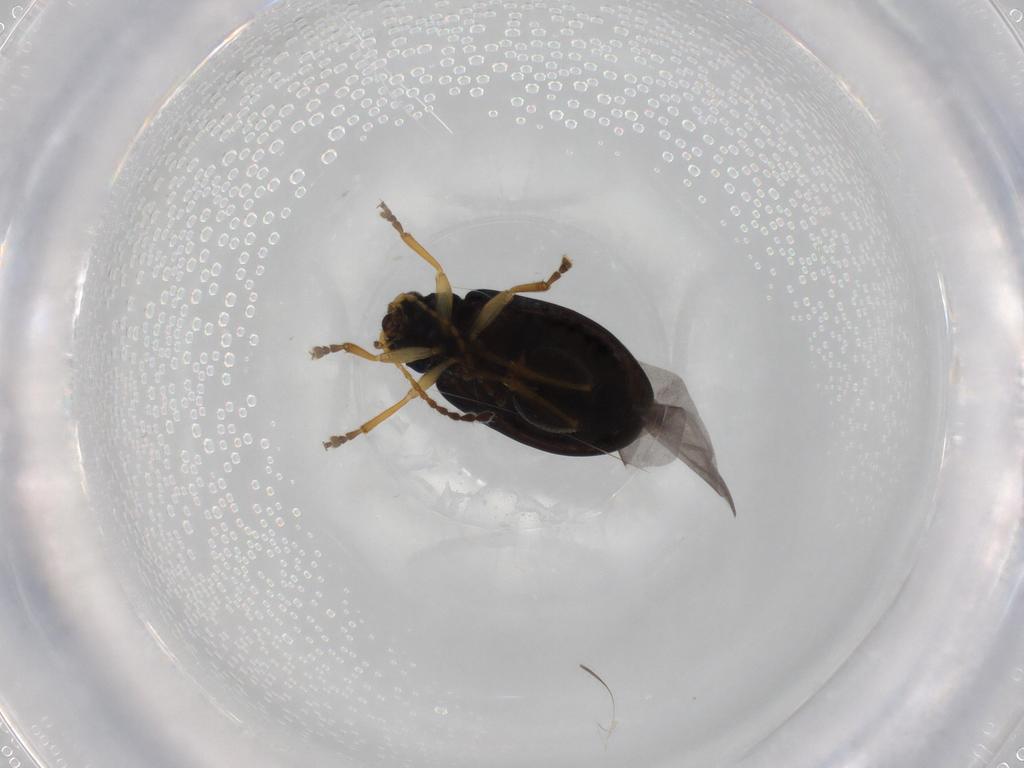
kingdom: Animalia
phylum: Arthropoda
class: Insecta
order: Coleoptera
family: Chrysomelidae
